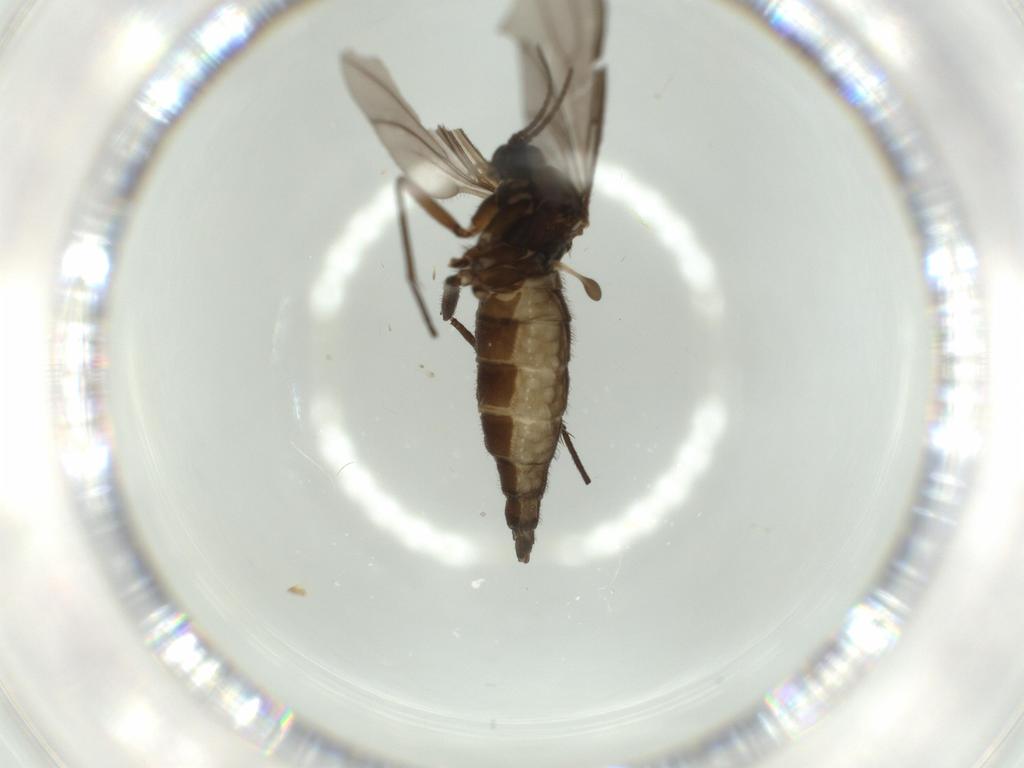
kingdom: Animalia
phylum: Arthropoda
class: Insecta
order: Diptera
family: Sciaridae
